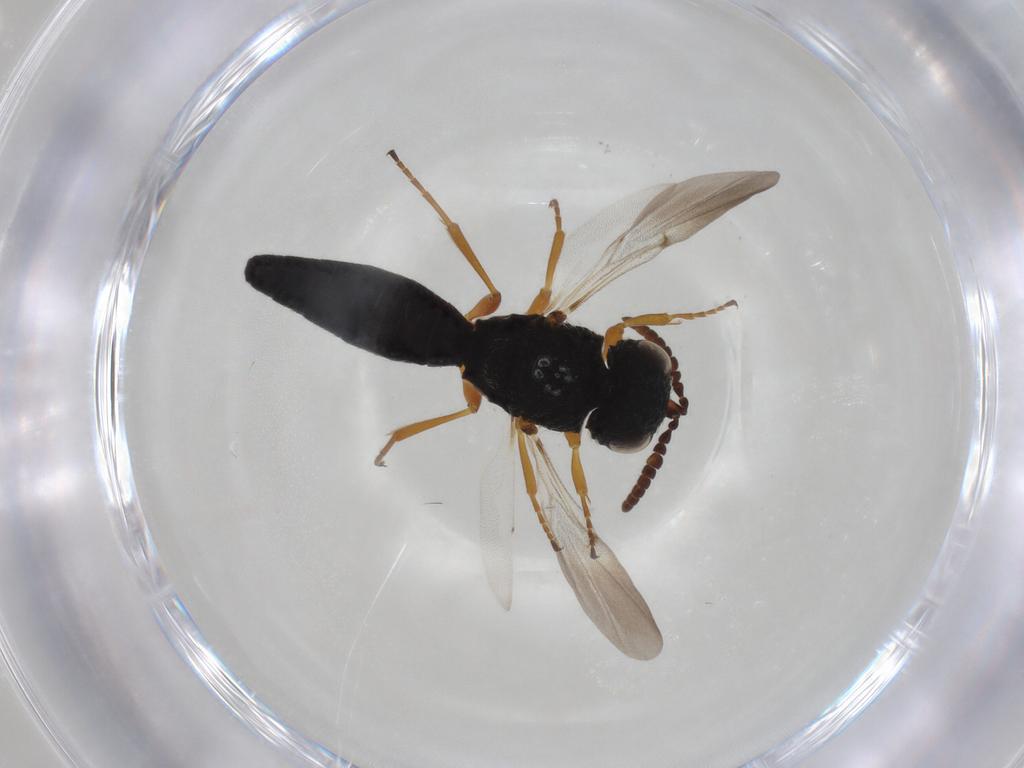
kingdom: Animalia
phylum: Arthropoda
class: Insecta
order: Hymenoptera
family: Scelionidae
